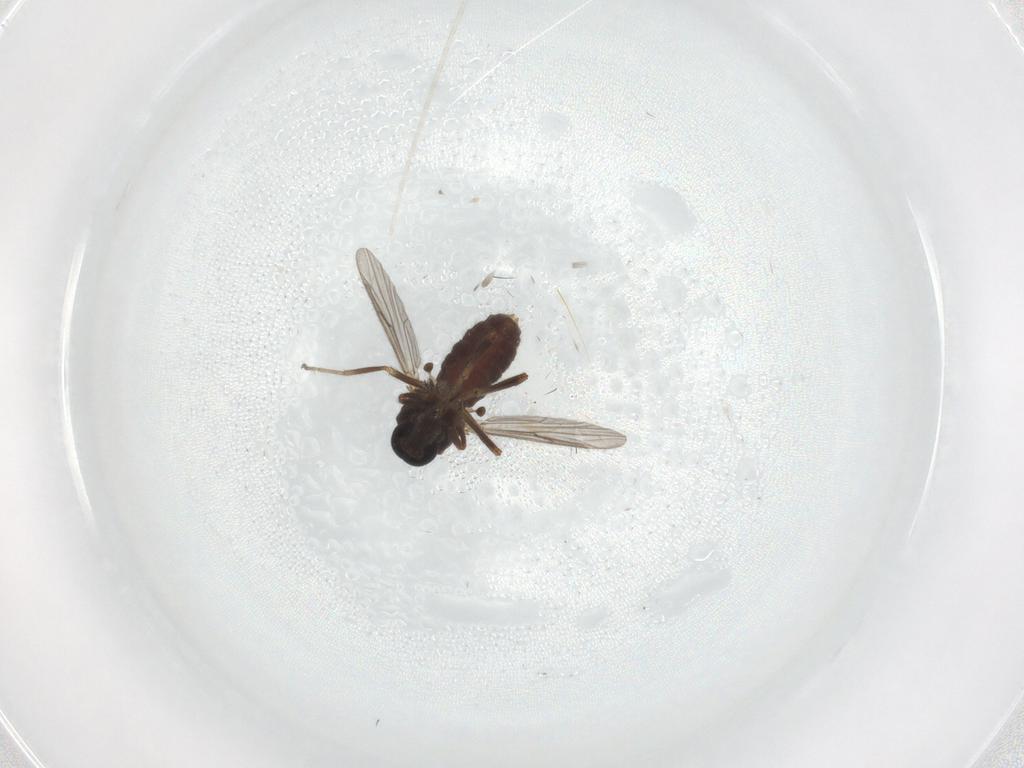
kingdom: Animalia
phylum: Arthropoda
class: Insecta
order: Diptera
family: Ceratopogonidae
